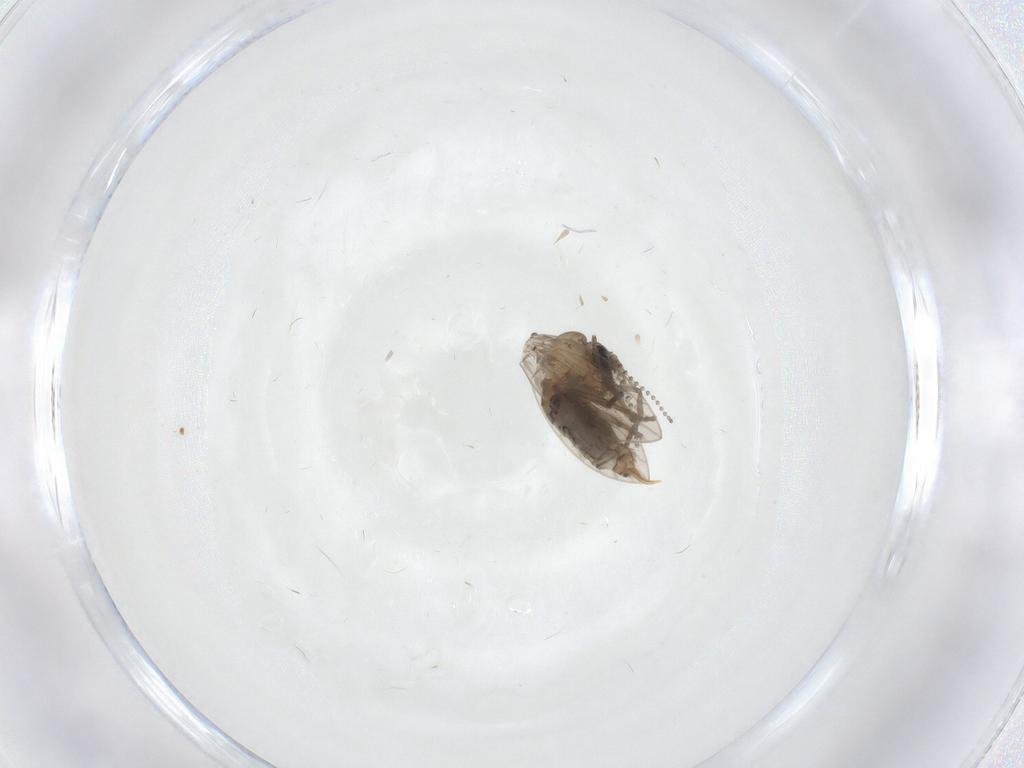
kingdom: Animalia
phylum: Arthropoda
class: Insecta
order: Diptera
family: Psychodidae
